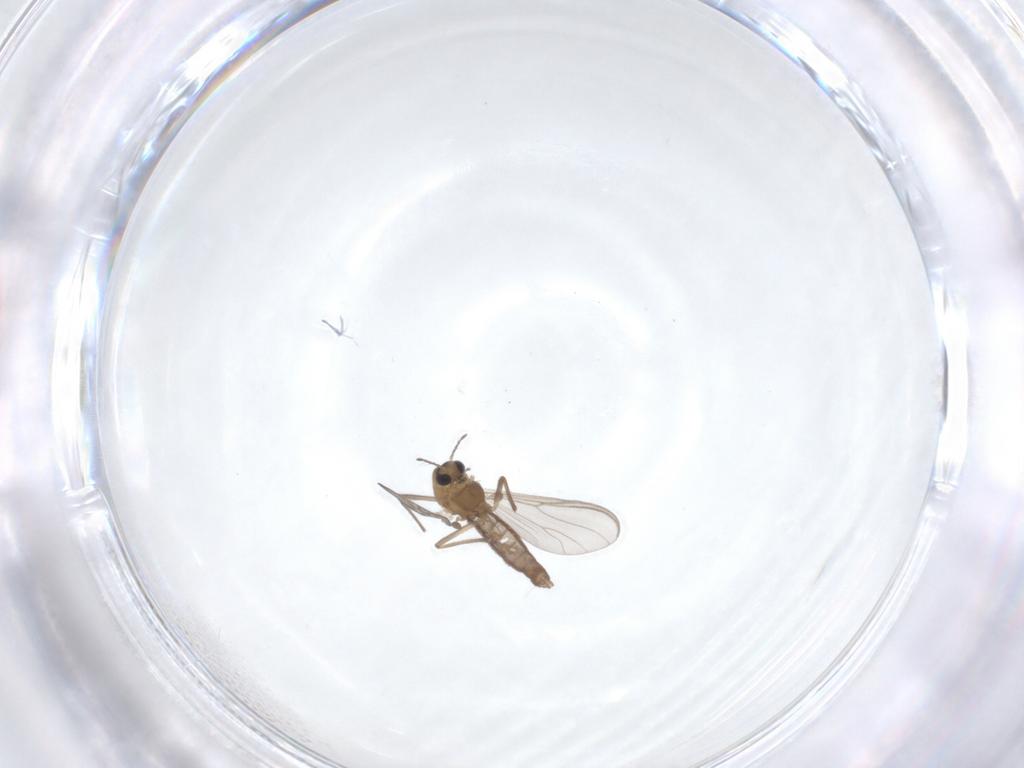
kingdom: Animalia
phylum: Arthropoda
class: Insecta
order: Diptera
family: Chironomidae
